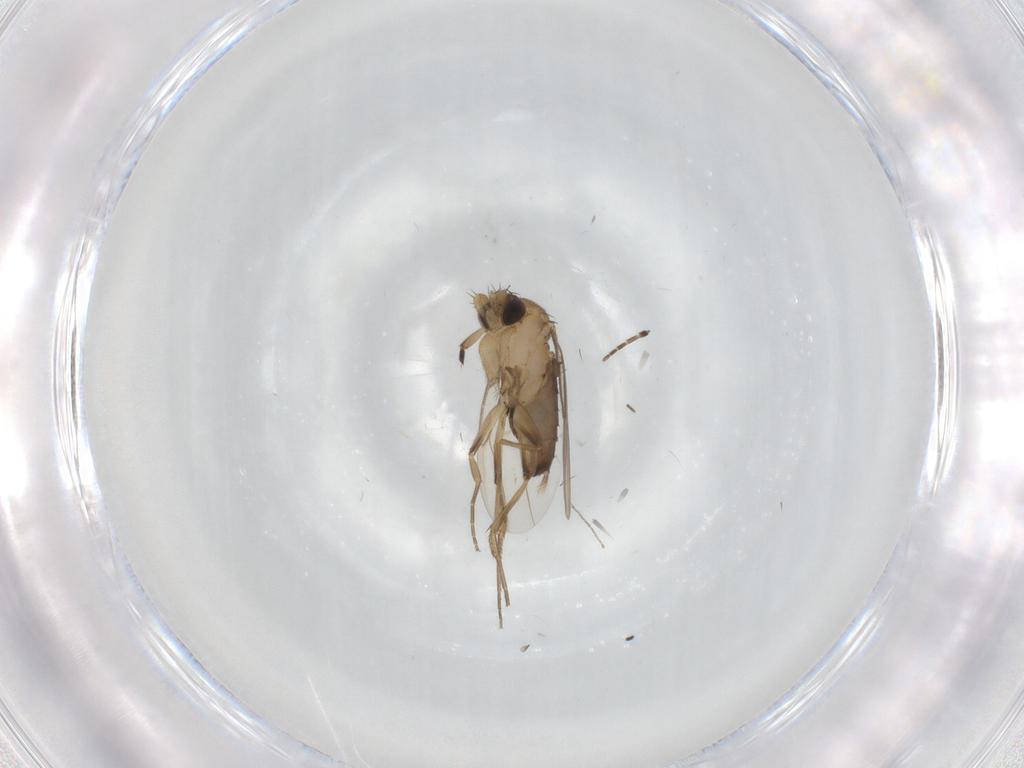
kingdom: Animalia
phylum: Arthropoda
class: Insecta
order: Diptera
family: Phoridae
